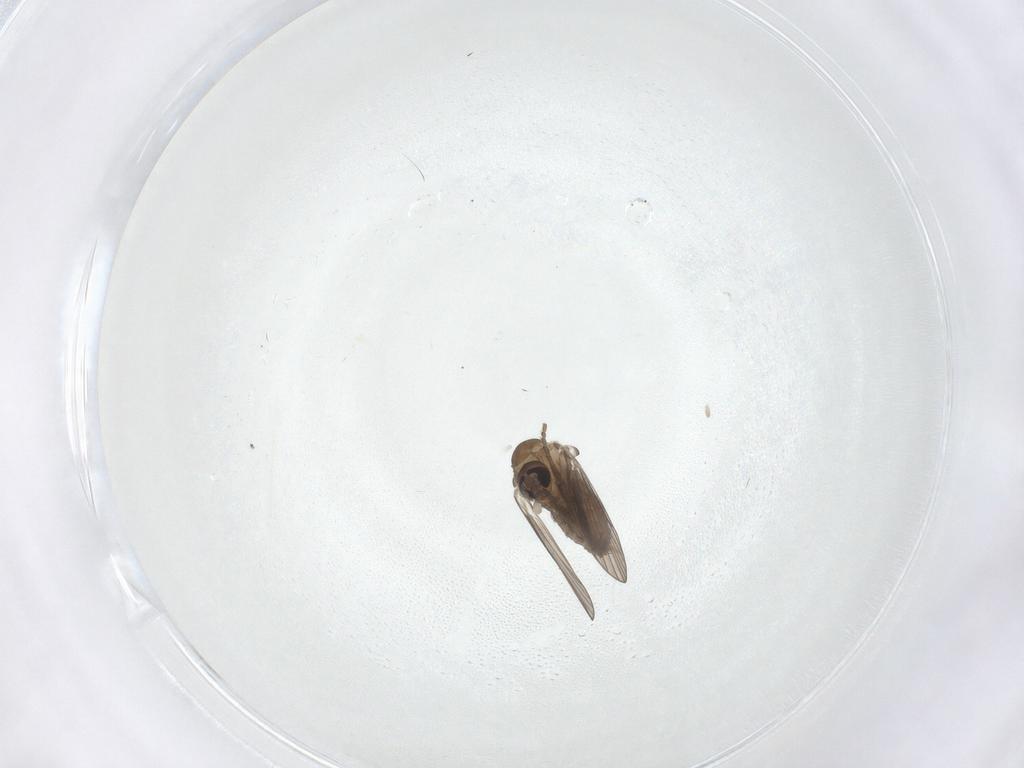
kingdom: Animalia
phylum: Arthropoda
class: Insecta
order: Diptera
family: Psychodidae
